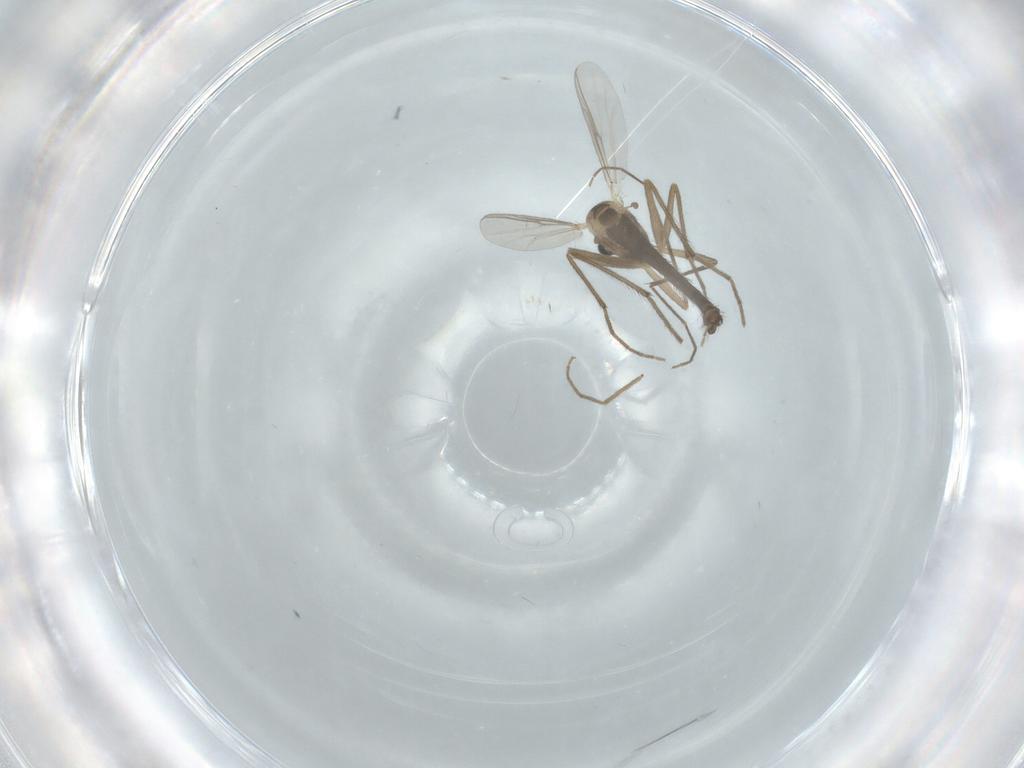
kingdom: Animalia
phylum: Arthropoda
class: Insecta
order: Diptera
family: Chironomidae
